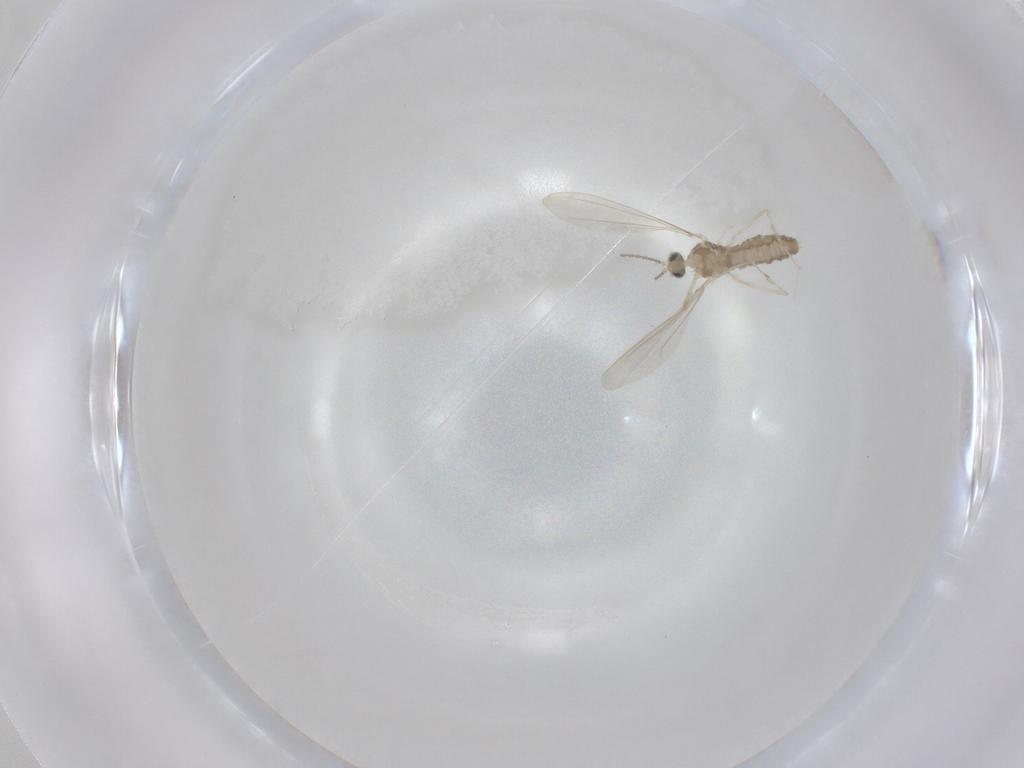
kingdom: Animalia
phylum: Arthropoda
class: Insecta
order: Diptera
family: Cecidomyiidae
